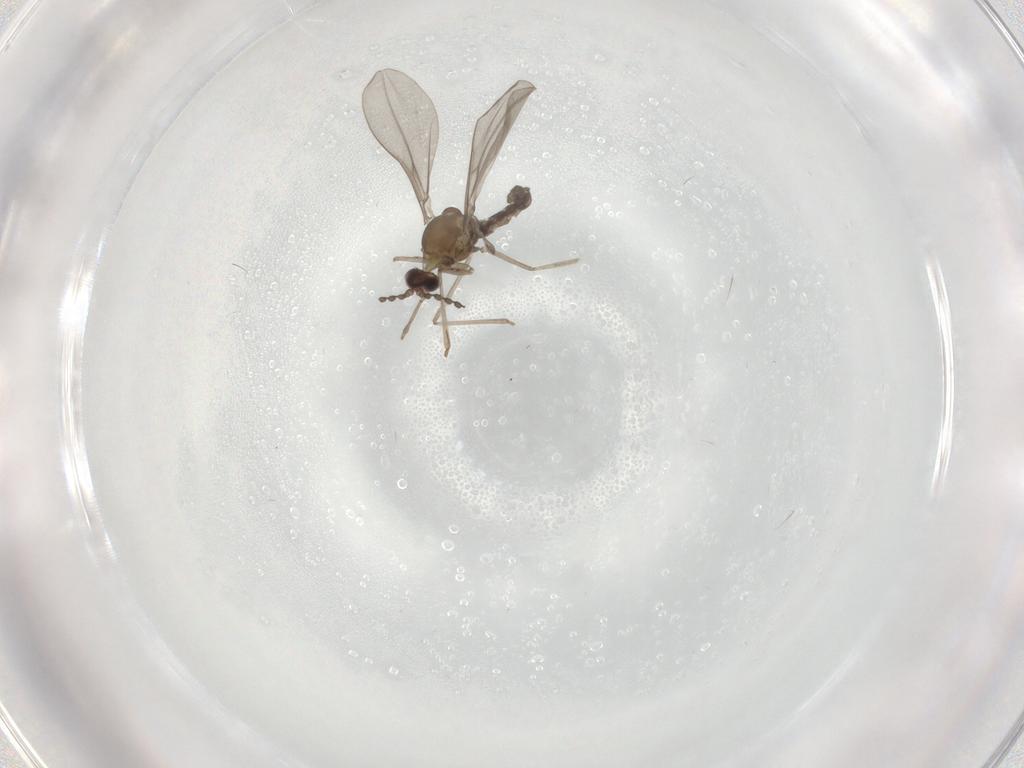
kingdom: Animalia
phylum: Arthropoda
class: Insecta
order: Diptera
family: Cecidomyiidae
